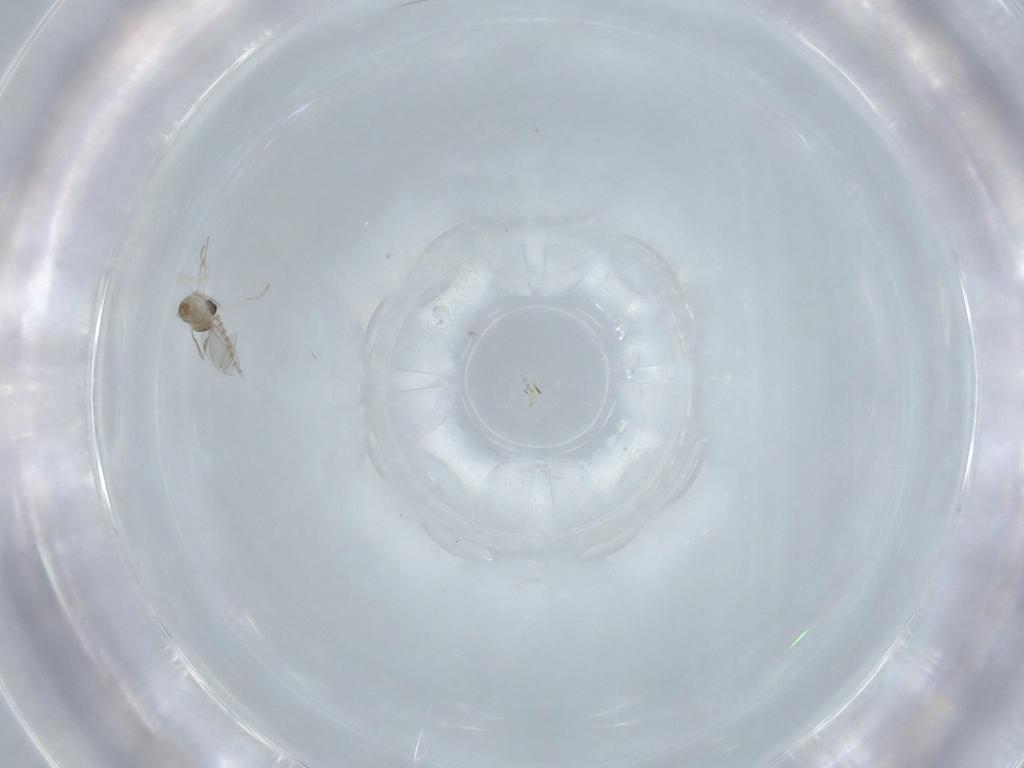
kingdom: Animalia
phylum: Arthropoda
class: Insecta
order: Diptera
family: Cecidomyiidae
